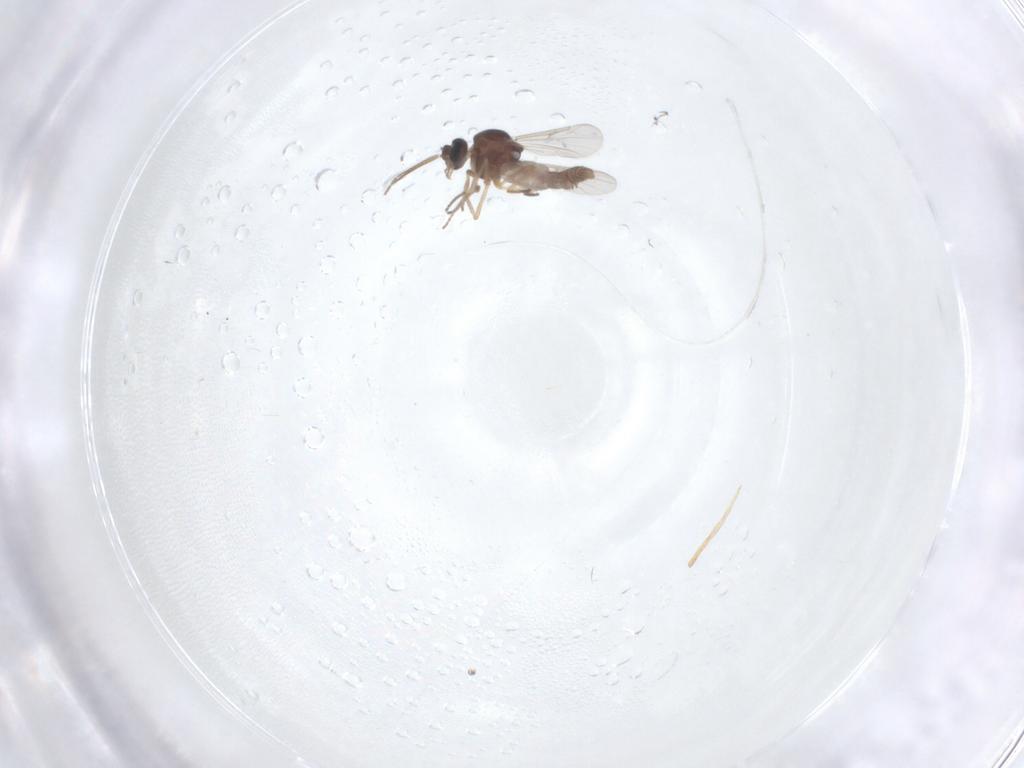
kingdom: Animalia
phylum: Arthropoda
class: Insecta
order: Diptera
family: Ceratopogonidae
